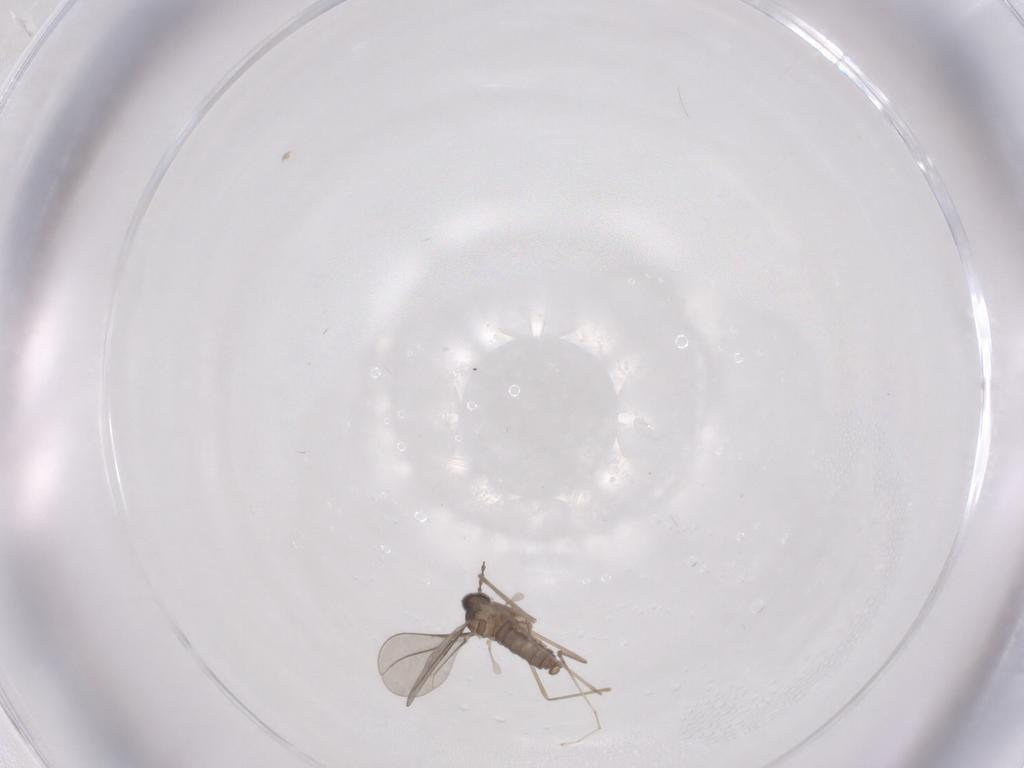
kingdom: Animalia
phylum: Arthropoda
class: Insecta
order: Diptera
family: Cecidomyiidae
